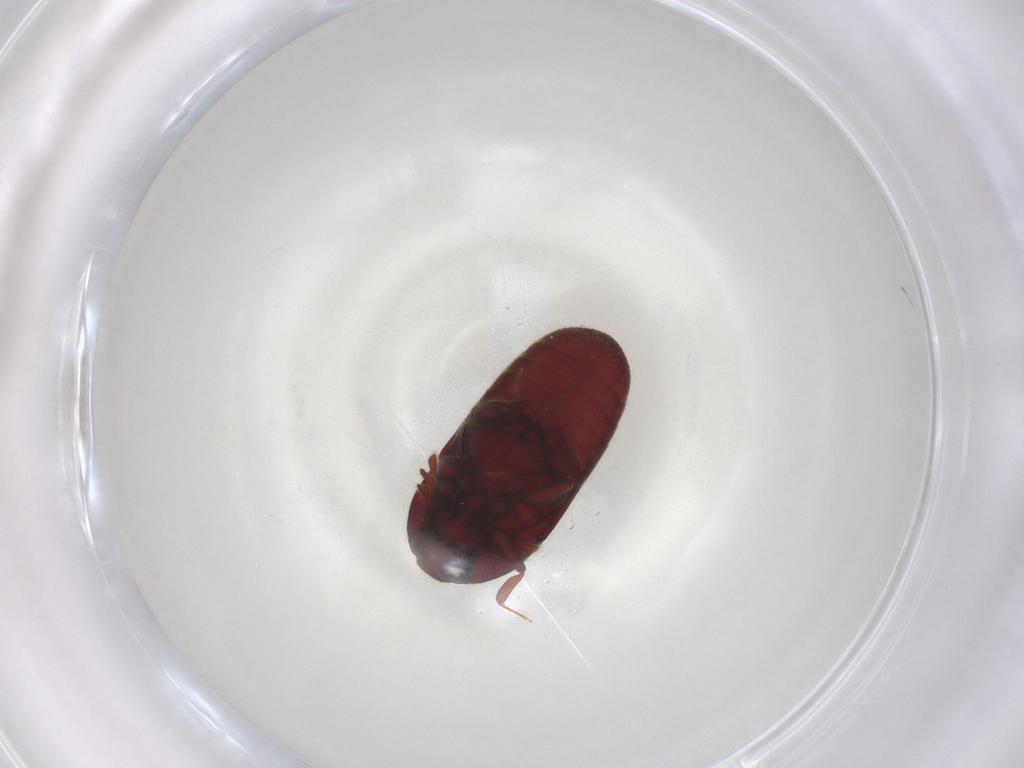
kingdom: Animalia
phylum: Arthropoda
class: Insecta
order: Coleoptera
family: Throscidae
